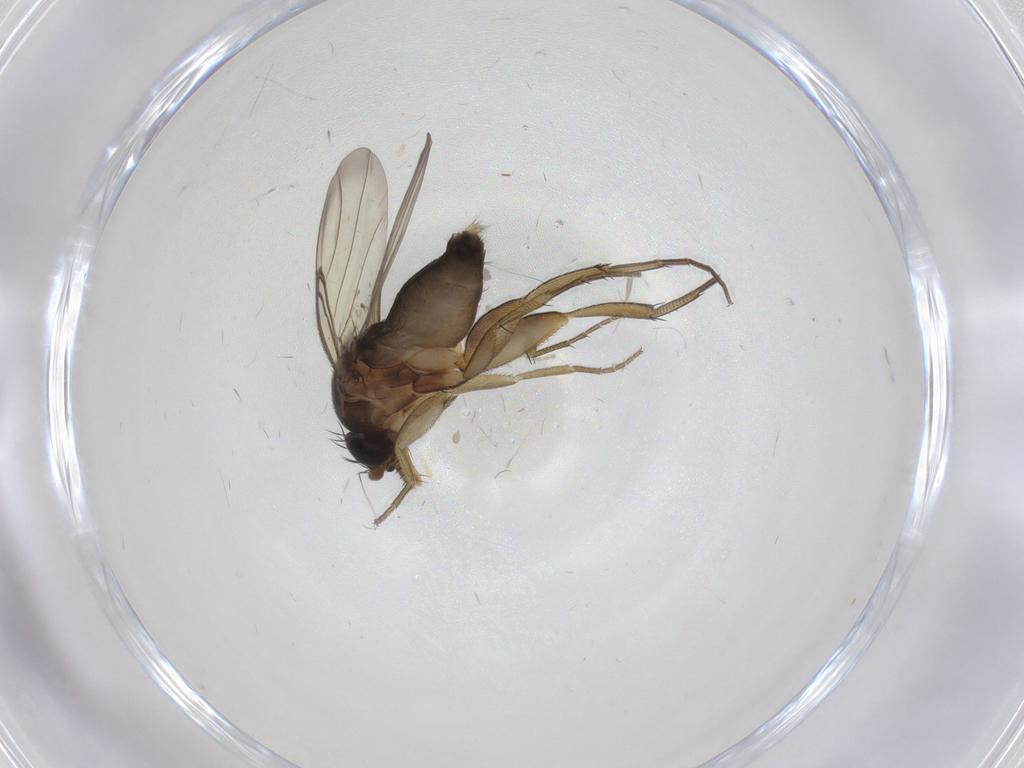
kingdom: Animalia
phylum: Arthropoda
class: Insecta
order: Diptera
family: Phoridae
